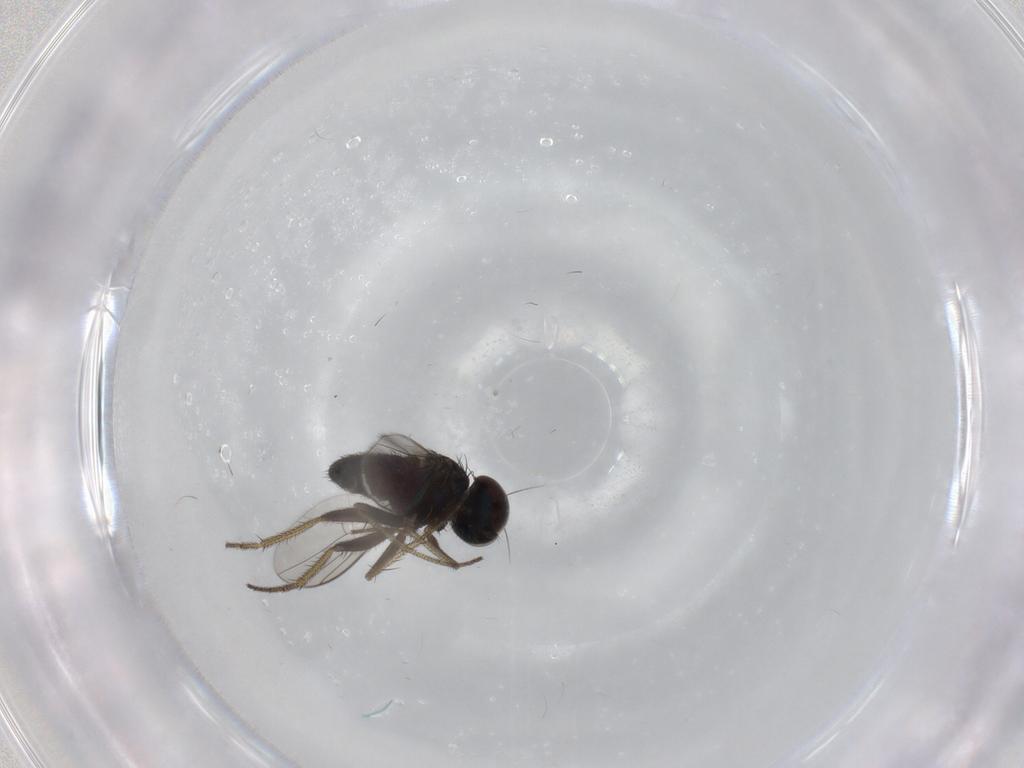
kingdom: Animalia
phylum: Arthropoda
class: Insecta
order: Diptera
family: Dolichopodidae
